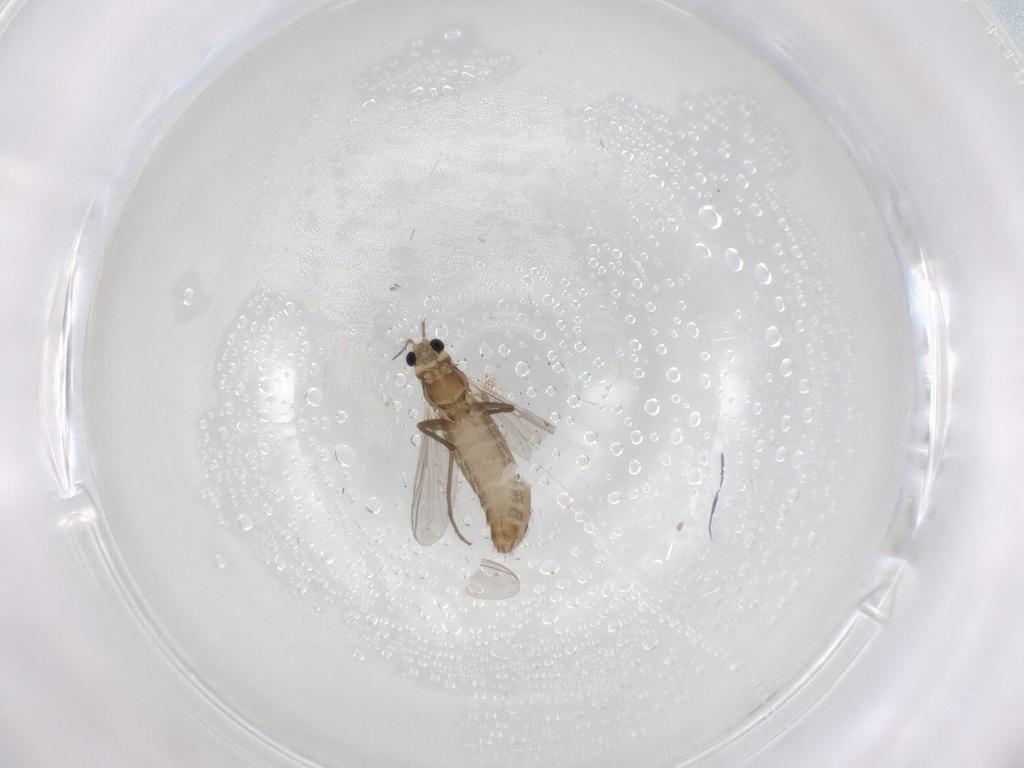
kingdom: Animalia
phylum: Arthropoda
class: Insecta
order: Diptera
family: Chironomidae
